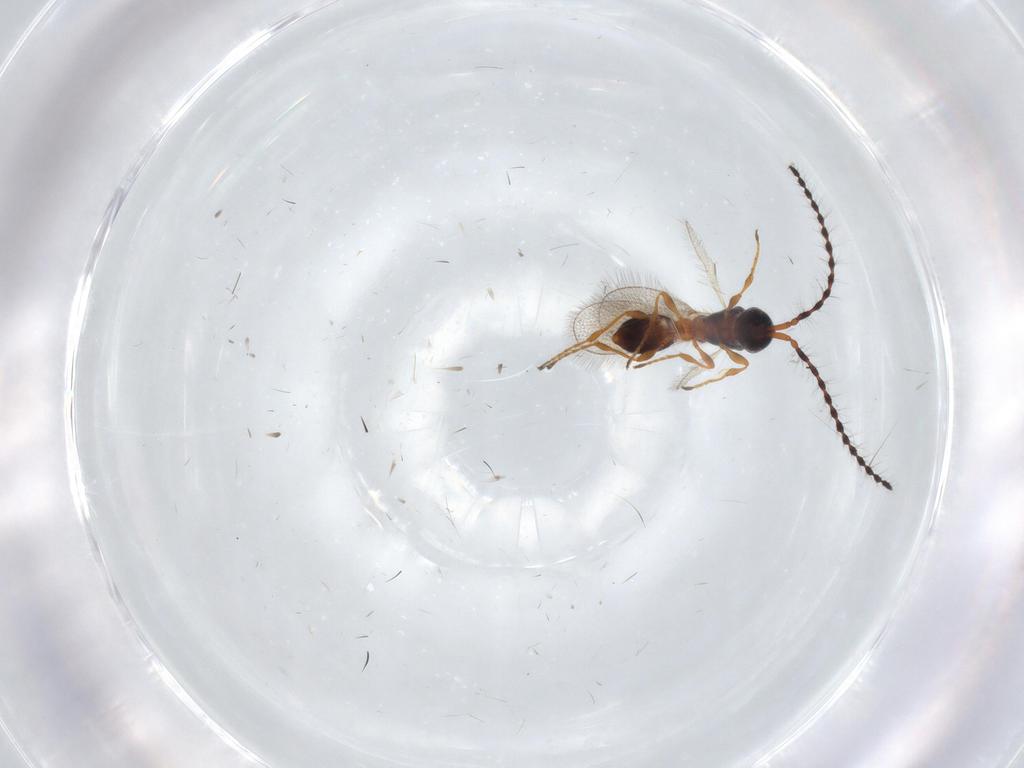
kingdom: Animalia
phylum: Arthropoda
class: Insecta
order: Hymenoptera
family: Diapriidae
